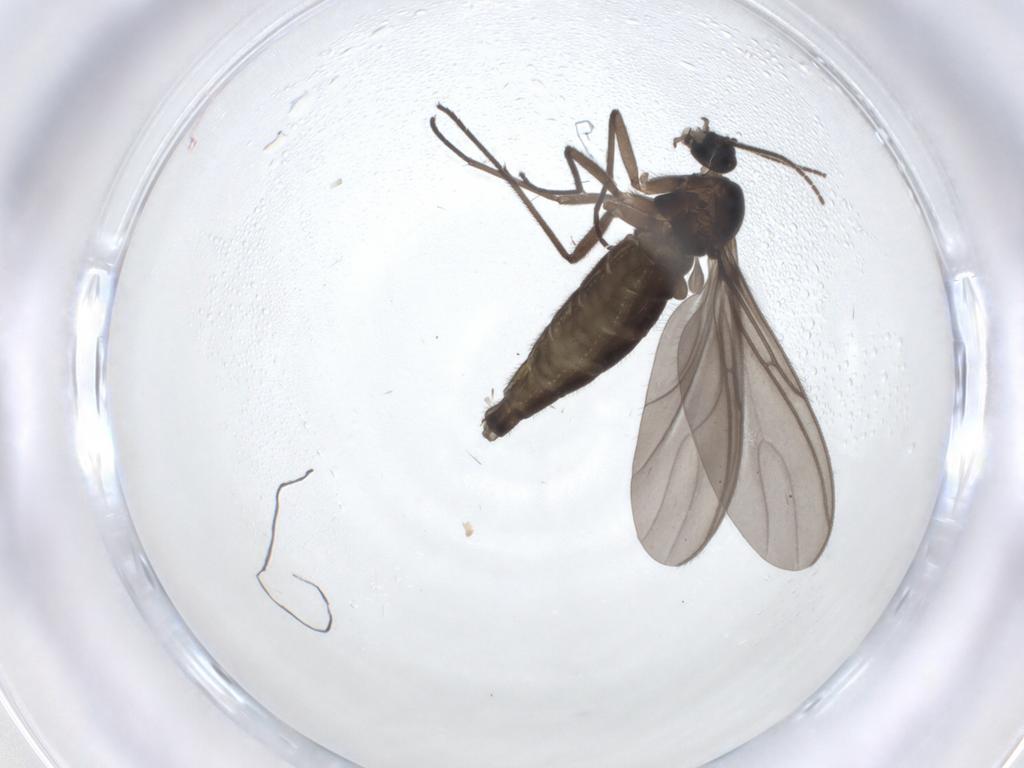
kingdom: Animalia
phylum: Arthropoda
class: Insecta
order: Diptera
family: Sciaridae
